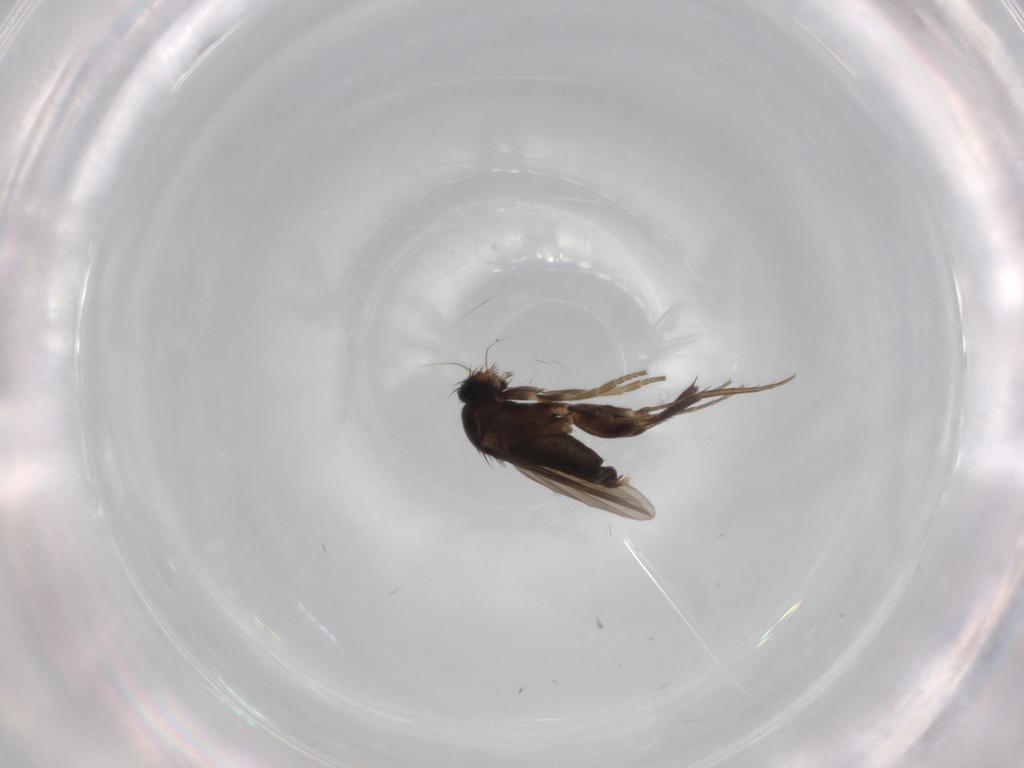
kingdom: Animalia
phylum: Arthropoda
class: Insecta
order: Diptera
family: Phoridae
